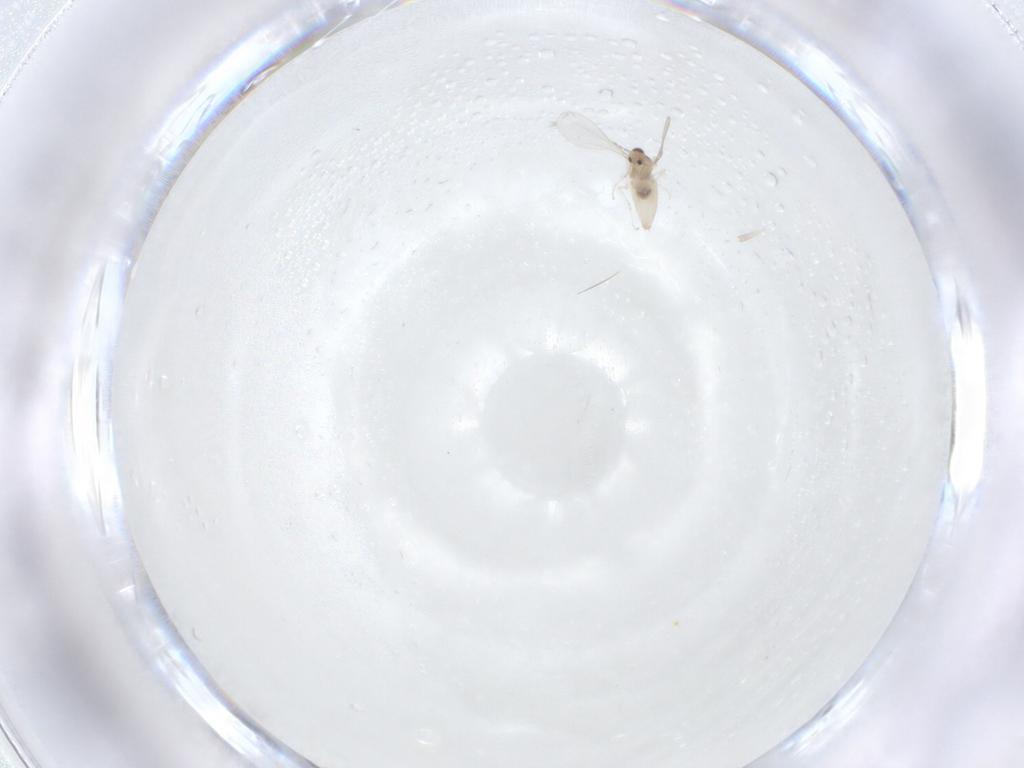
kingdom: Animalia
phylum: Arthropoda
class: Insecta
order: Diptera
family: Cecidomyiidae
